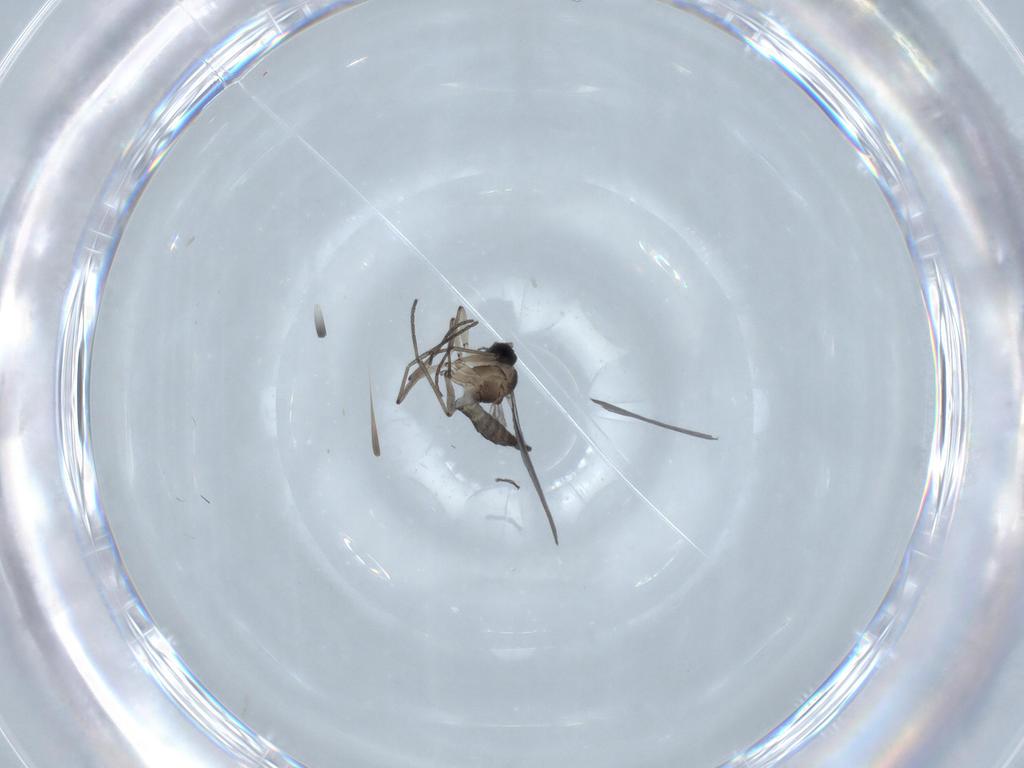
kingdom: Animalia
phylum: Arthropoda
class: Insecta
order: Diptera
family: Sciaridae
